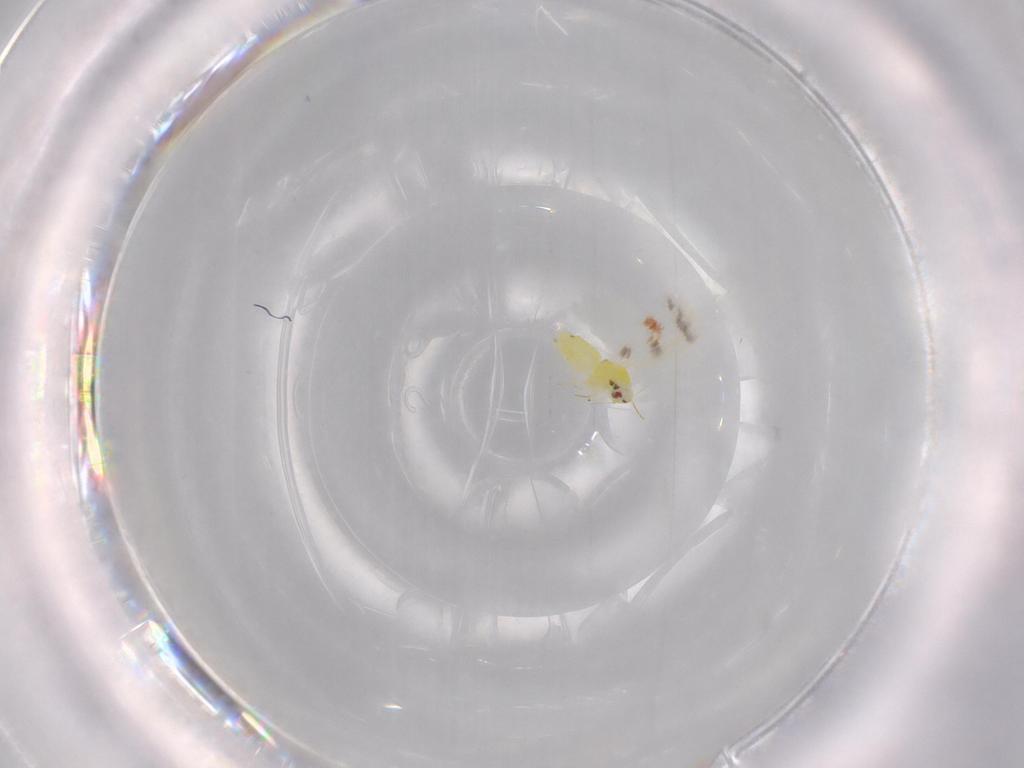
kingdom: Animalia
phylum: Arthropoda
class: Insecta
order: Hemiptera
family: Aleyrodidae
